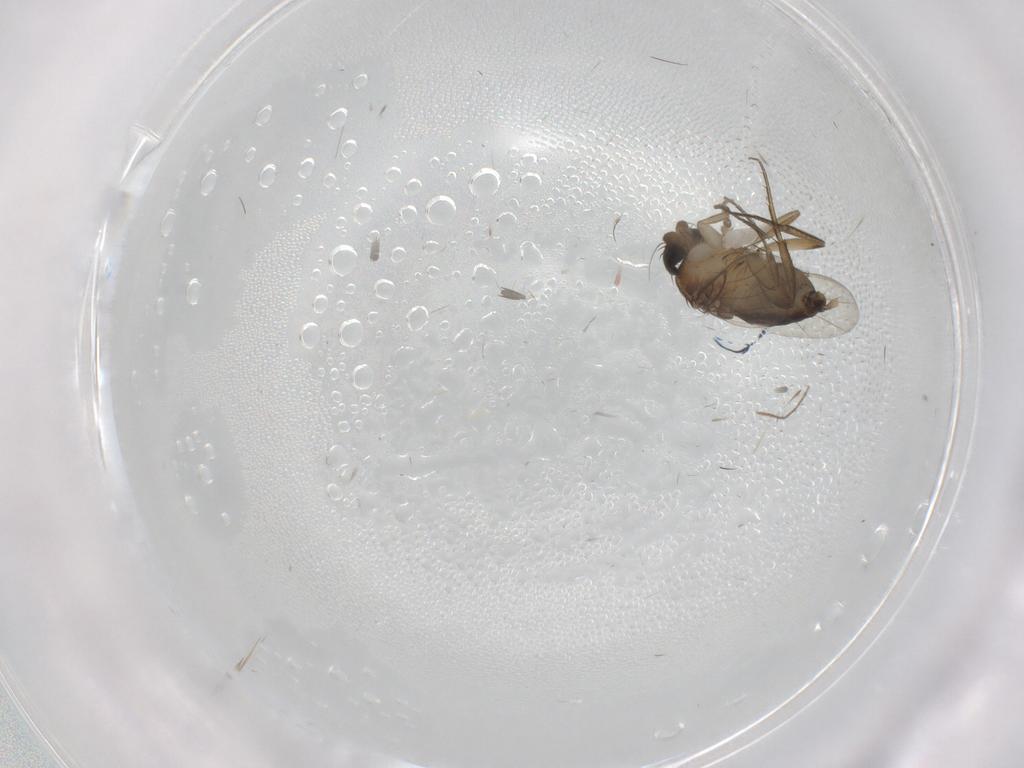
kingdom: Animalia
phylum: Arthropoda
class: Insecta
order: Diptera
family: Phoridae
